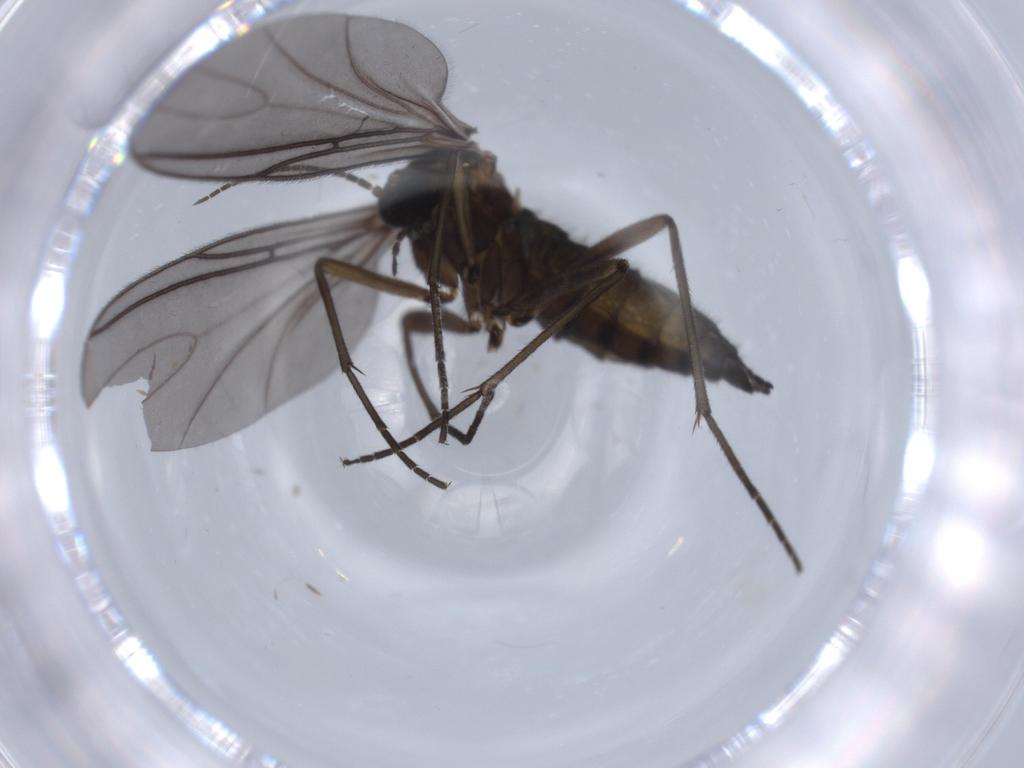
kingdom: Animalia
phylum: Arthropoda
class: Insecta
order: Diptera
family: Sciaridae
